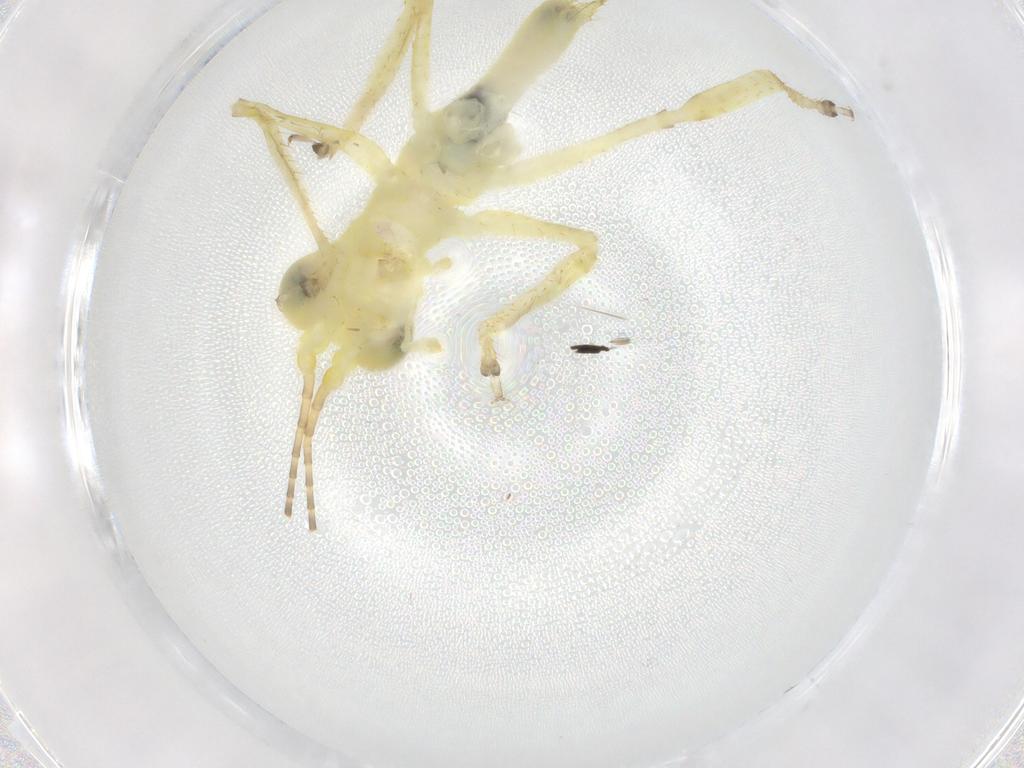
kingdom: Animalia
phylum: Arthropoda
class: Insecta
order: Orthoptera
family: Tettigoniidae
